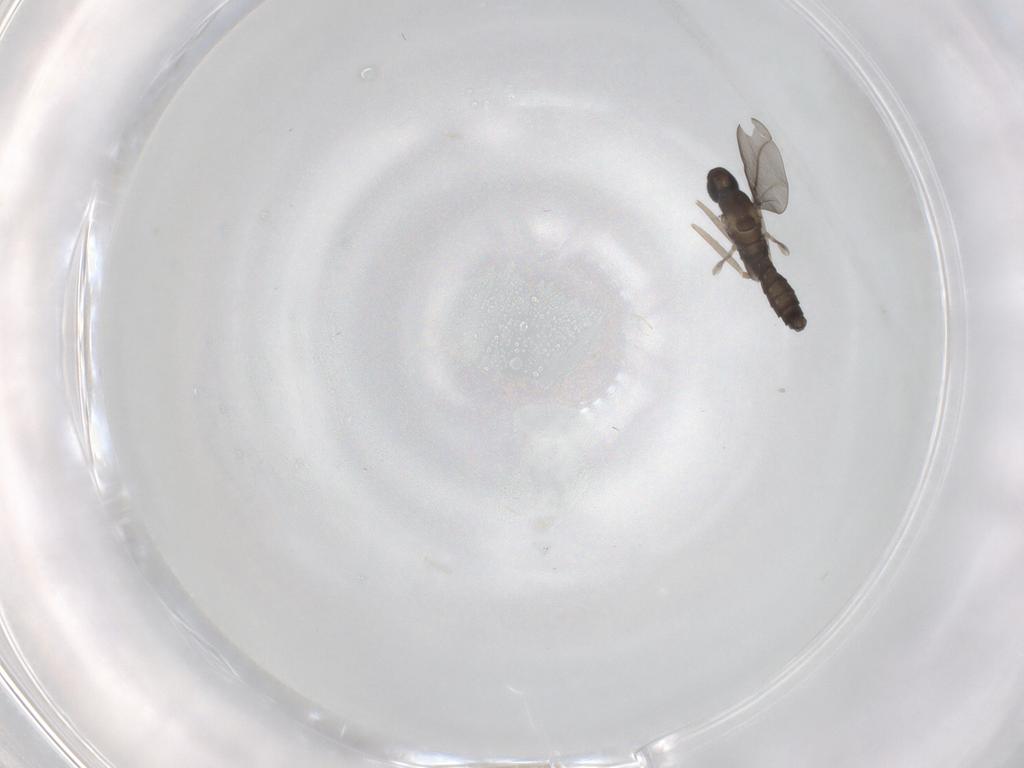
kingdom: Animalia
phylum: Arthropoda
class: Insecta
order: Diptera
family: Cecidomyiidae
